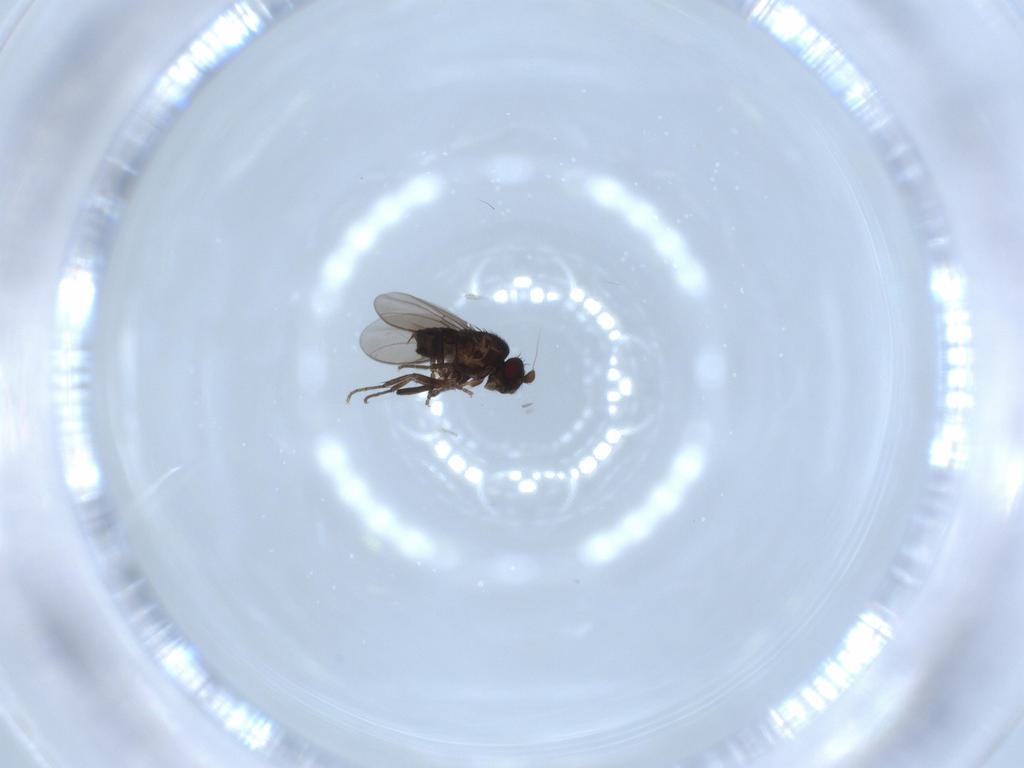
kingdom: Animalia
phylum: Arthropoda
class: Insecta
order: Diptera
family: Sphaeroceridae
